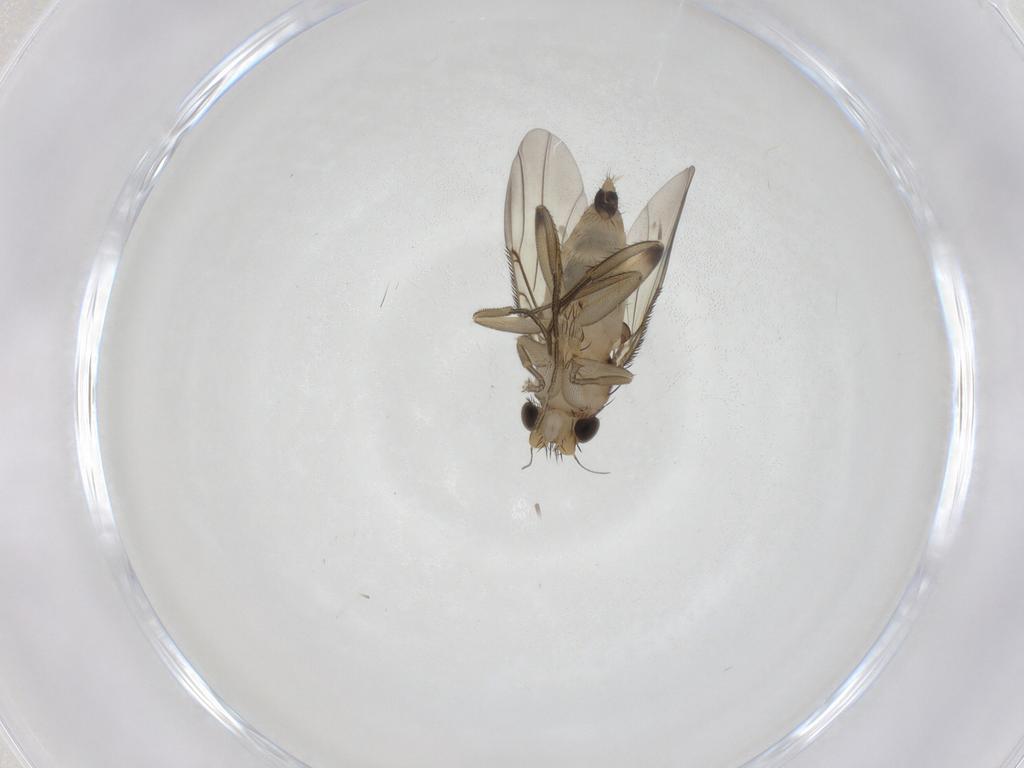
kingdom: Animalia
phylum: Arthropoda
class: Insecta
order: Diptera
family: Phoridae
